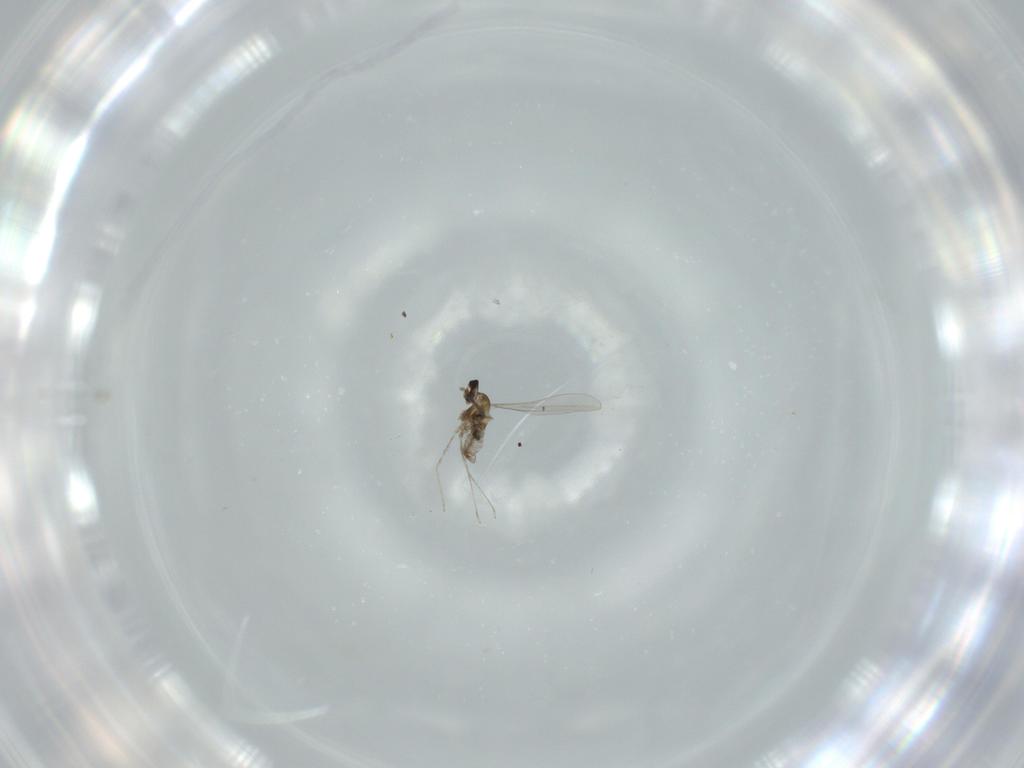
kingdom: Animalia
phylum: Arthropoda
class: Insecta
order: Diptera
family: Cecidomyiidae
